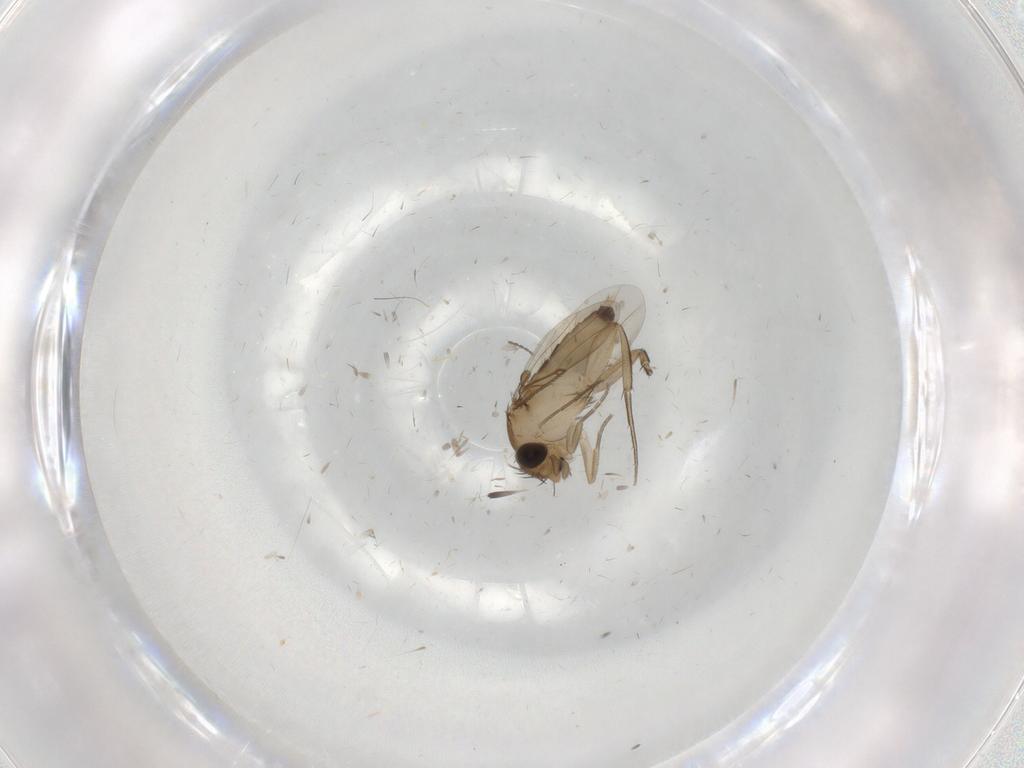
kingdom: Animalia
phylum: Arthropoda
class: Insecta
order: Diptera
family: Phoridae
